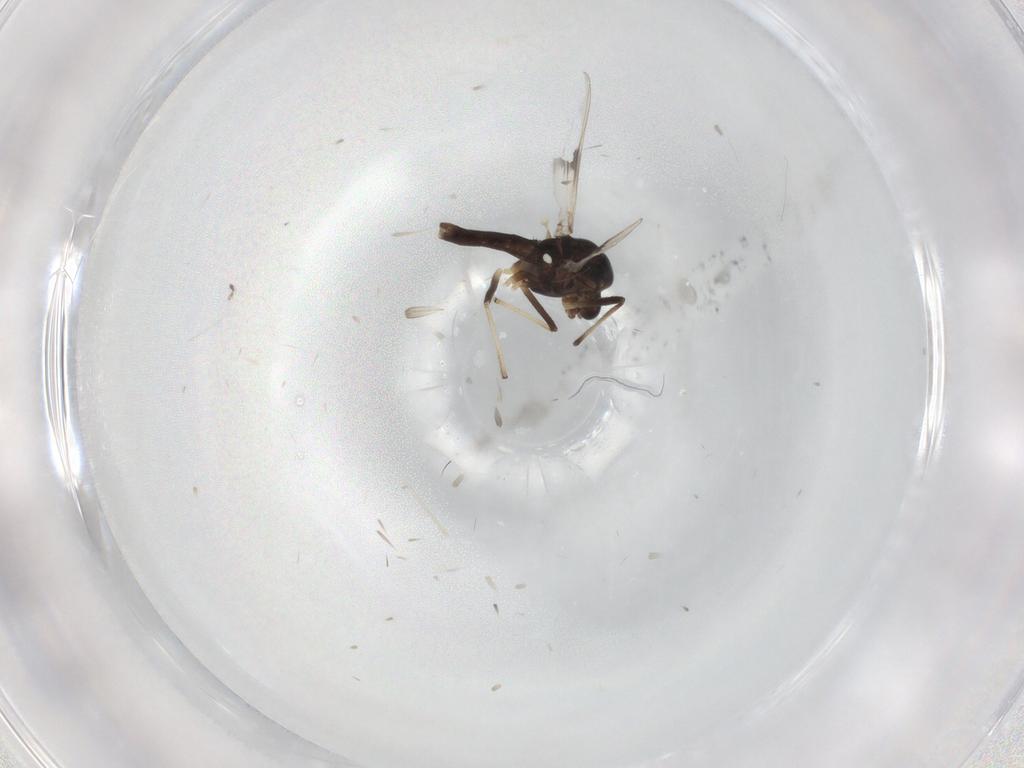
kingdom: Animalia
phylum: Arthropoda
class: Insecta
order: Diptera
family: Chironomidae
